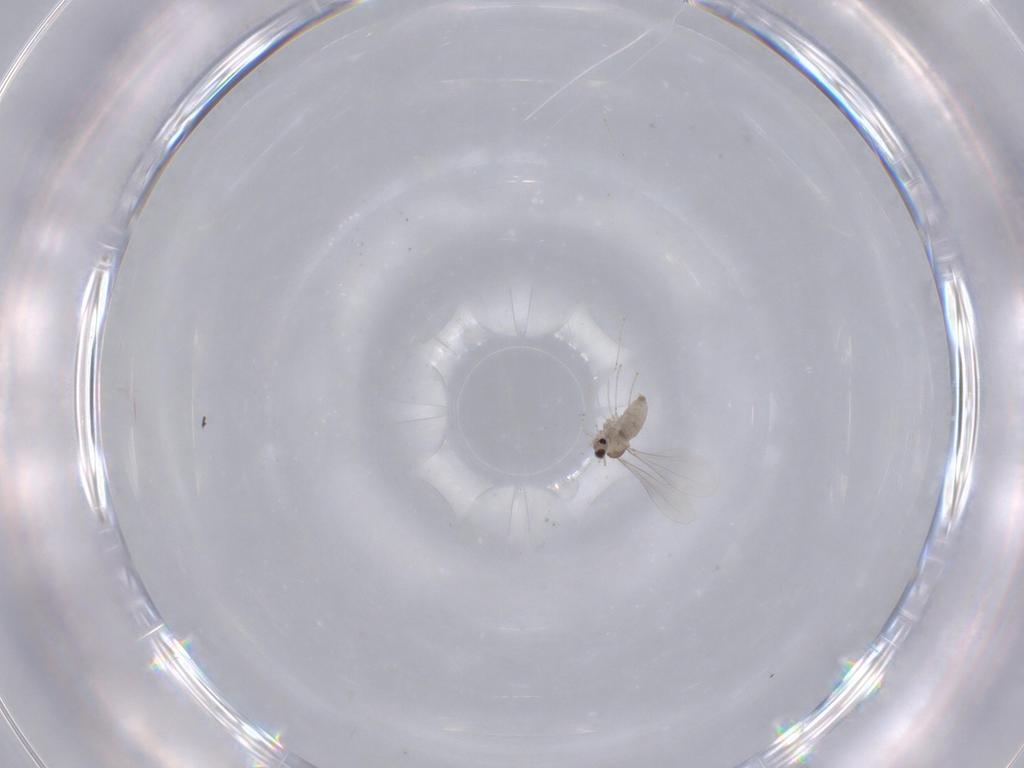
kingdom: Animalia
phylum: Arthropoda
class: Insecta
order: Diptera
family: Cecidomyiidae
